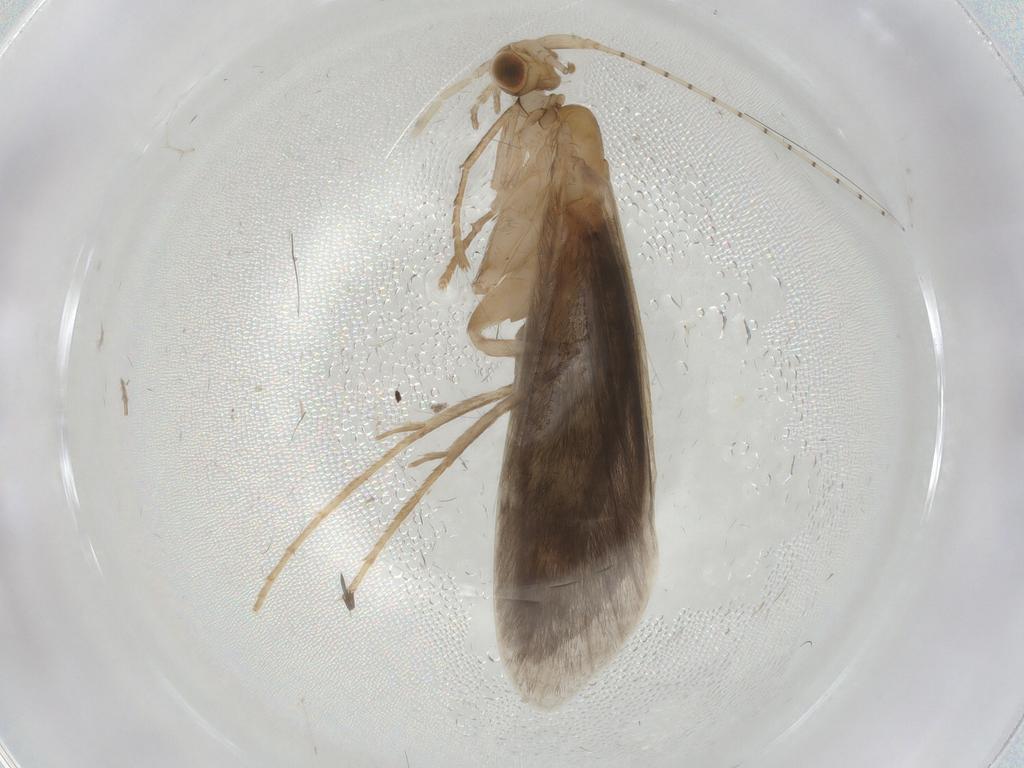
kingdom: Animalia
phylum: Arthropoda
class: Insecta
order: Trichoptera
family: Leptoceridae
